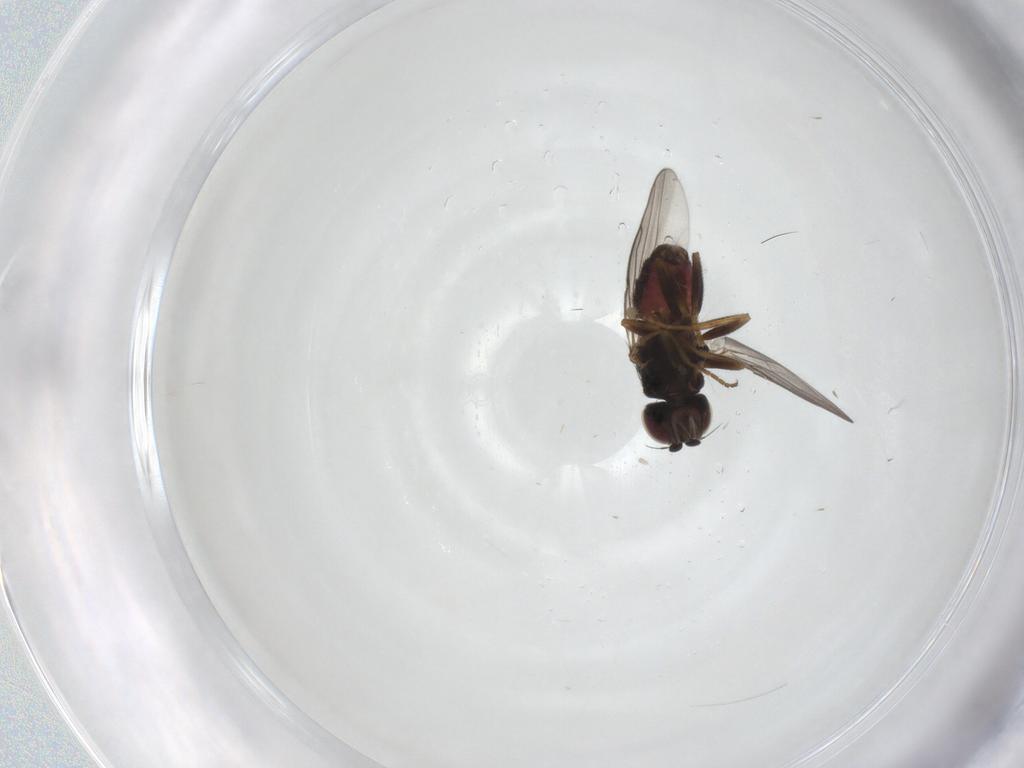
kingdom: Animalia
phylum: Arthropoda
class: Insecta
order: Diptera
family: Chloropidae
